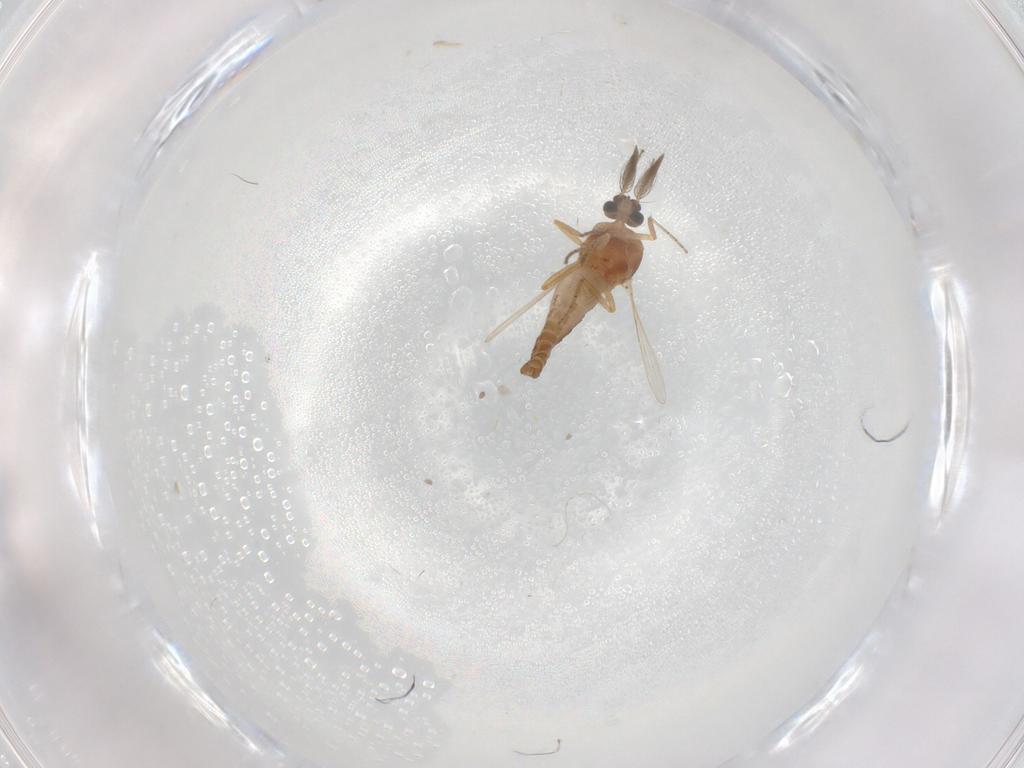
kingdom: Animalia
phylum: Arthropoda
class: Insecta
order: Diptera
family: Ceratopogonidae
